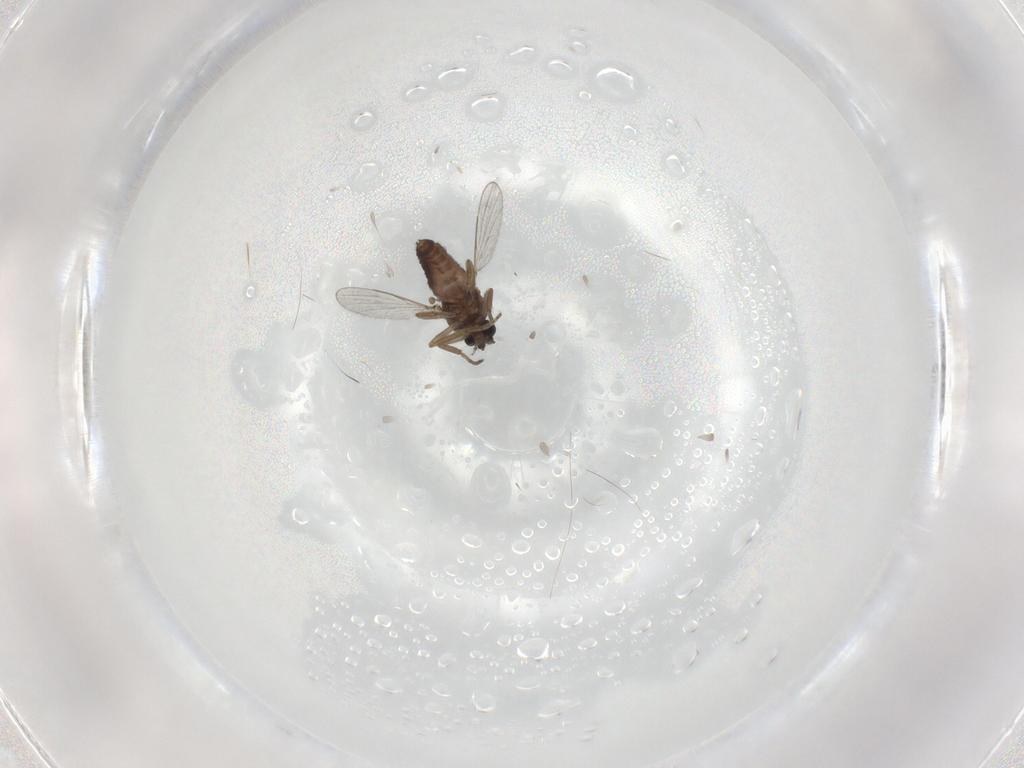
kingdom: Animalia
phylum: Arthropoda
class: Insecta
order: Diptera
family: Ceratopogonidae
